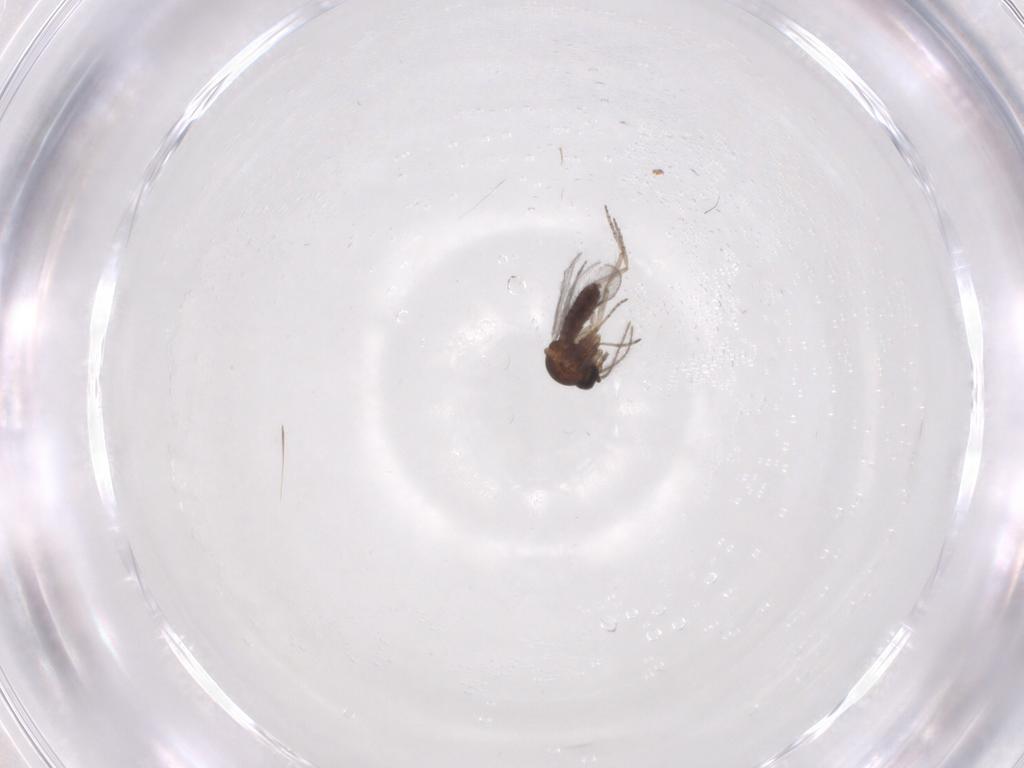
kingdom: Animalia
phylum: Arthropoda
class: Insecta
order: Diptera
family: Ceratopogonidae
